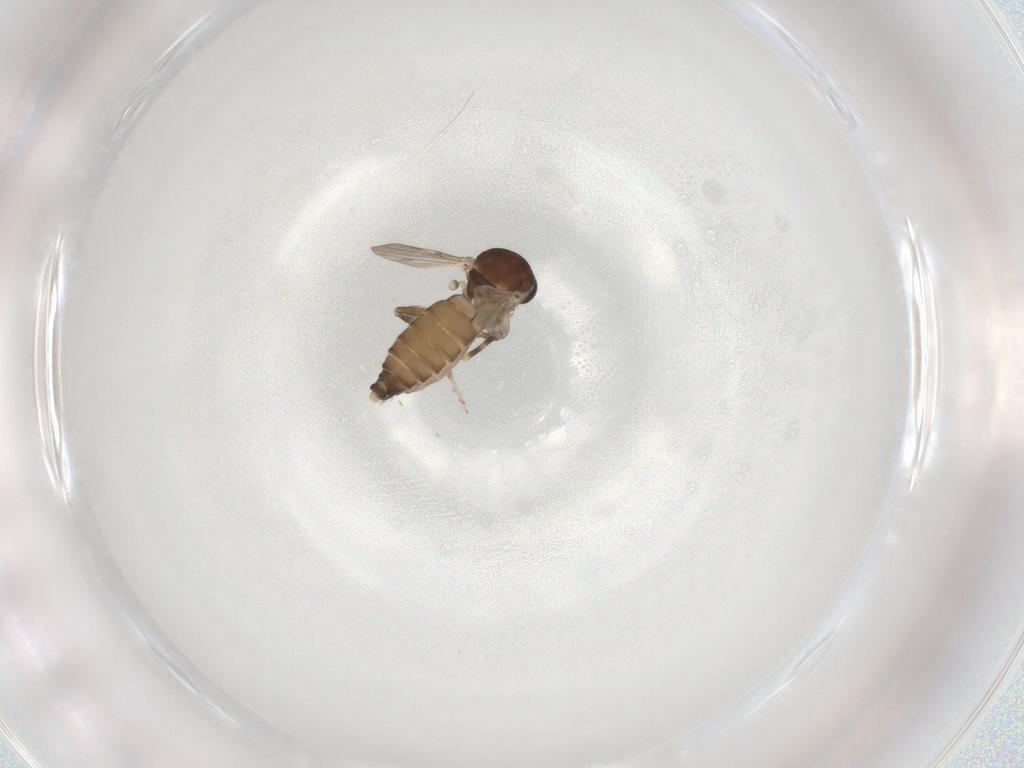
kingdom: Animalia
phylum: Arthropoda
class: Insecta
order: Diptera
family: Ceratopogonidae
